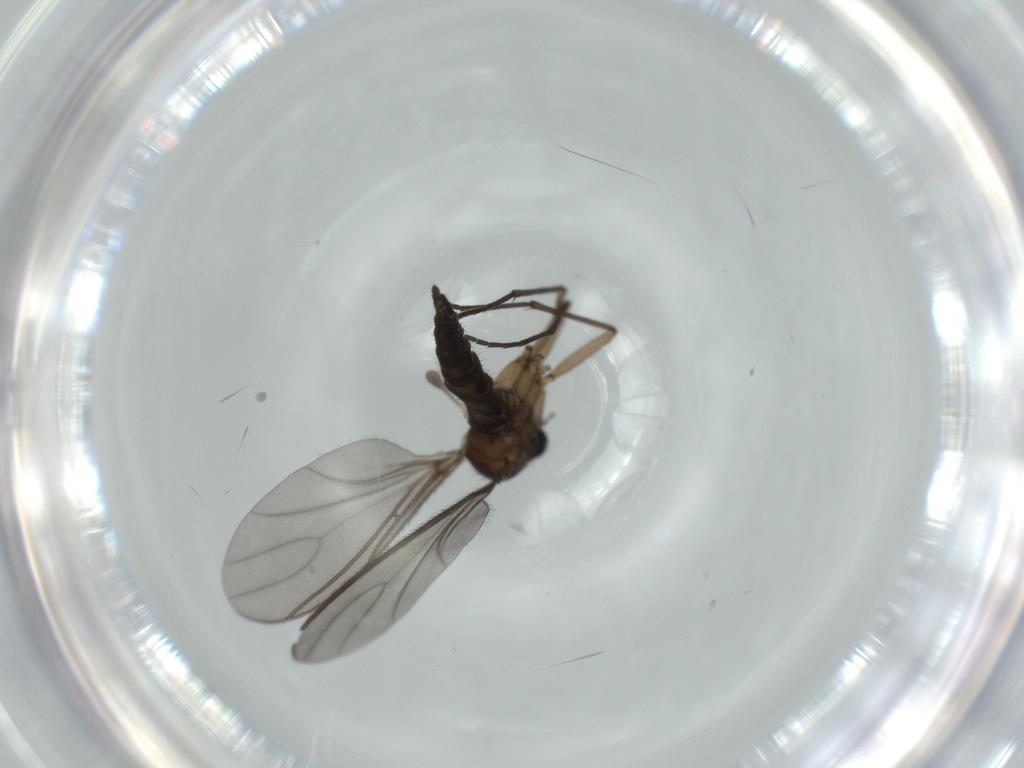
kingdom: Animalia
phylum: Arthropoda
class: Insecta
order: Diptera
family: Sciaridae
